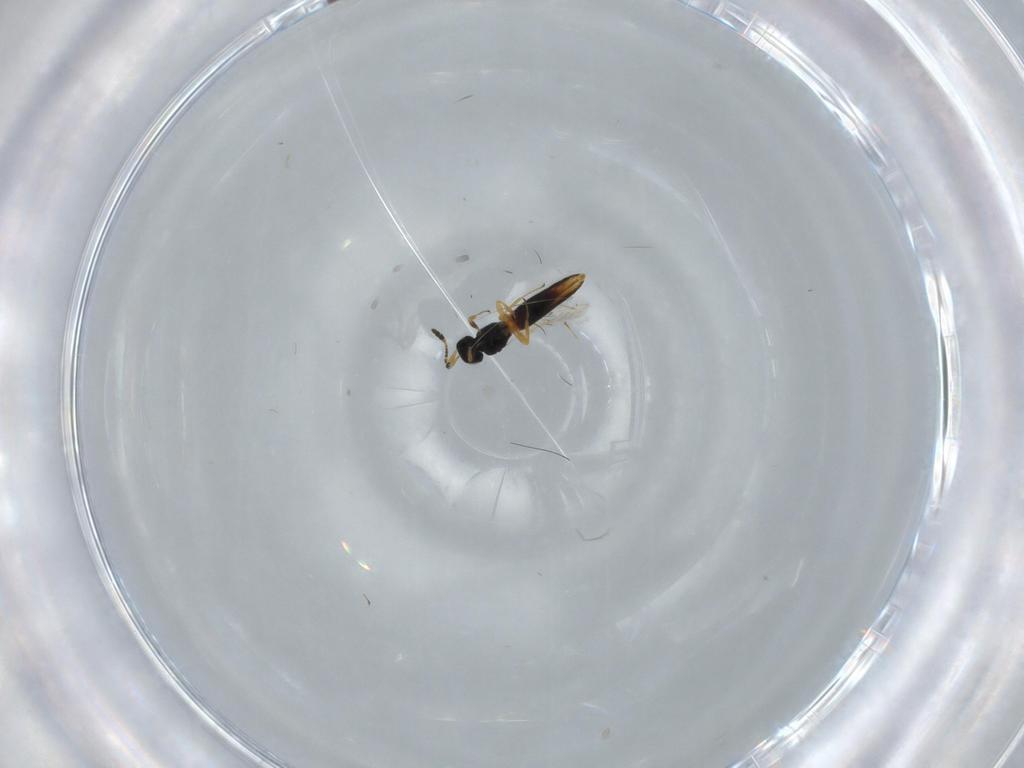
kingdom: Animalia
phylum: Arthropoda
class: Insecta
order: Hymenoptera
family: Scelionidae
